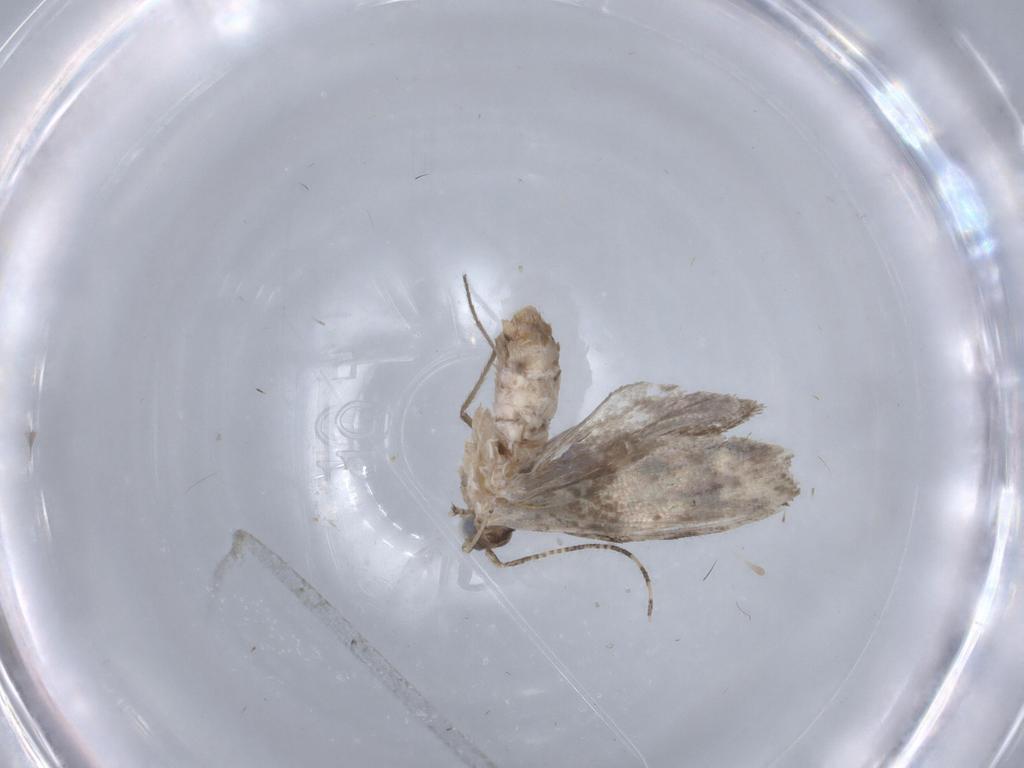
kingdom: Animalia
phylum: Arthropoda
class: Insecta
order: Lepidoptera
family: Tineidae
